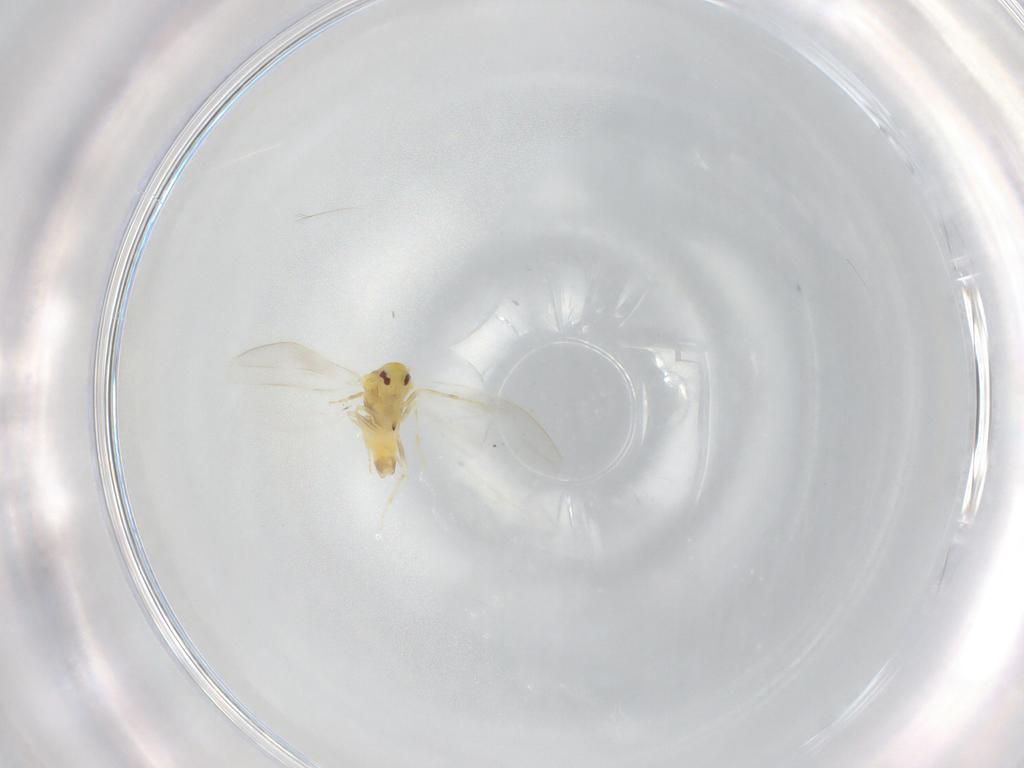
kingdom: Animalia
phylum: Arthropoda
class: Insecta
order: Hemiptera
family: Aleyrodidae
